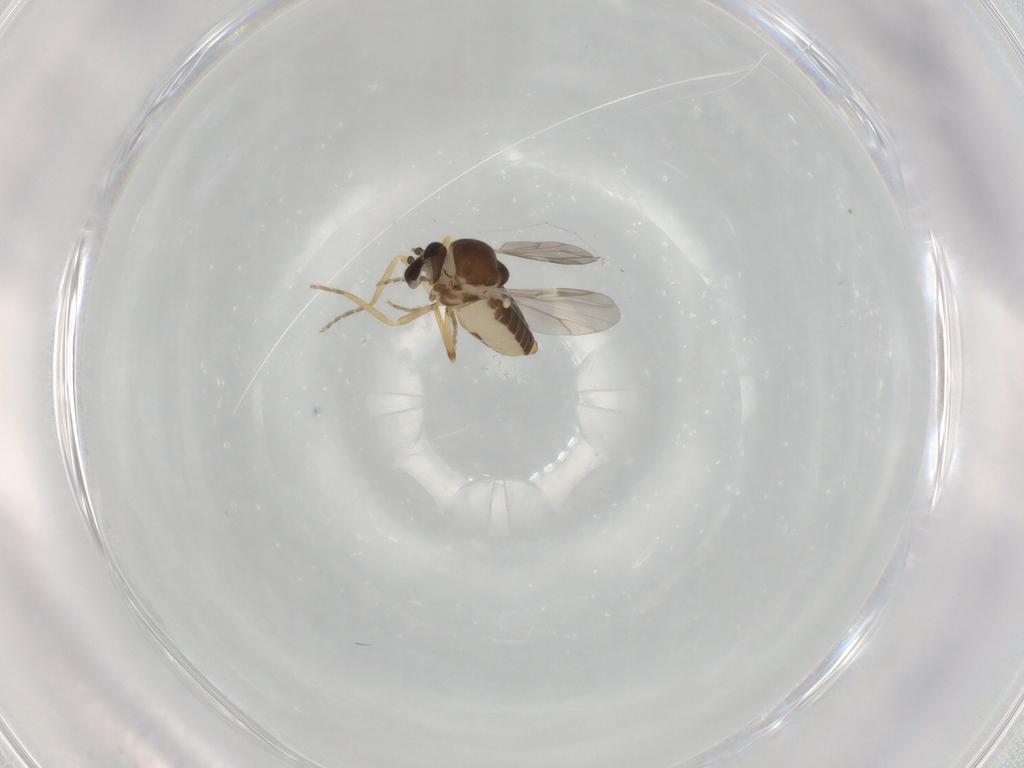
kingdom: Animalia
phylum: Arthropoda
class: Insecta
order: Diptera
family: Ceratopogonidae
